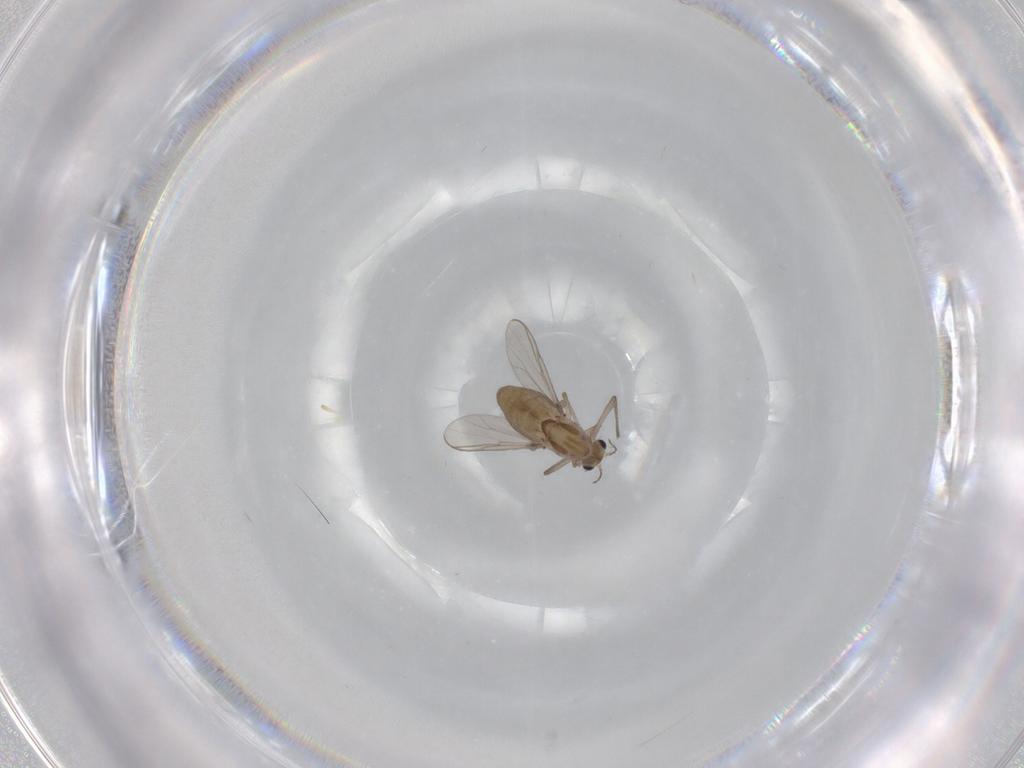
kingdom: Animalia
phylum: Arthropoda
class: Insecta
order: Diptera
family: Chironomidae
